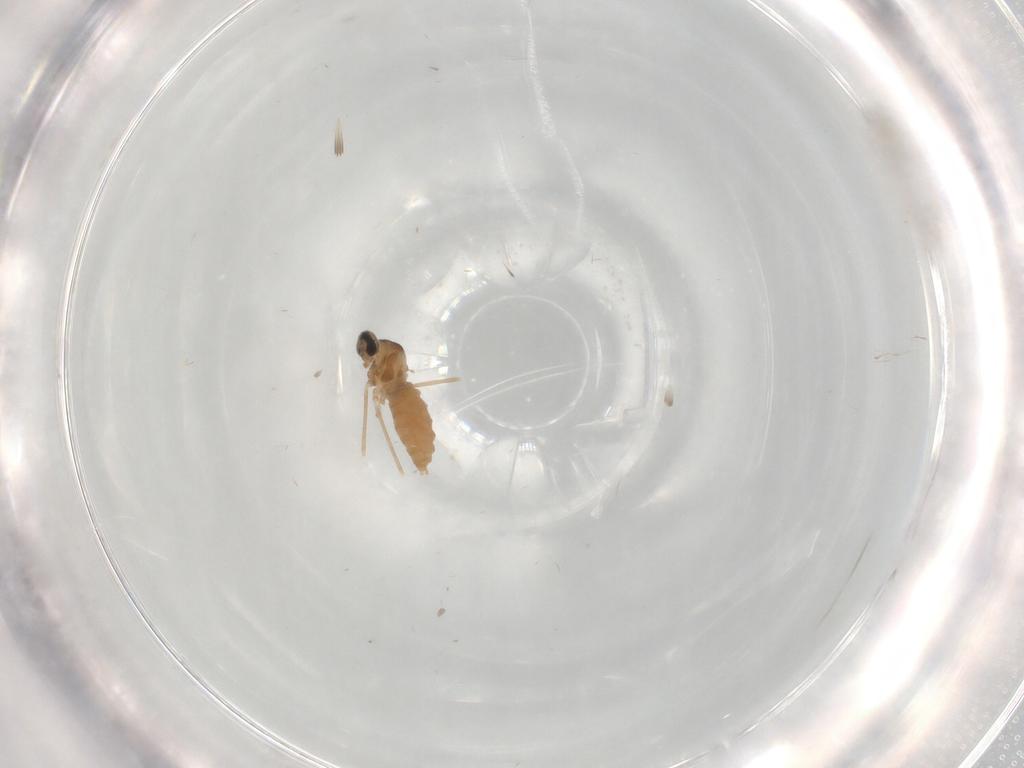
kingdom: Animalia
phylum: Arthropoda
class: Insecta
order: Diptera
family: Cecidomyiidae
